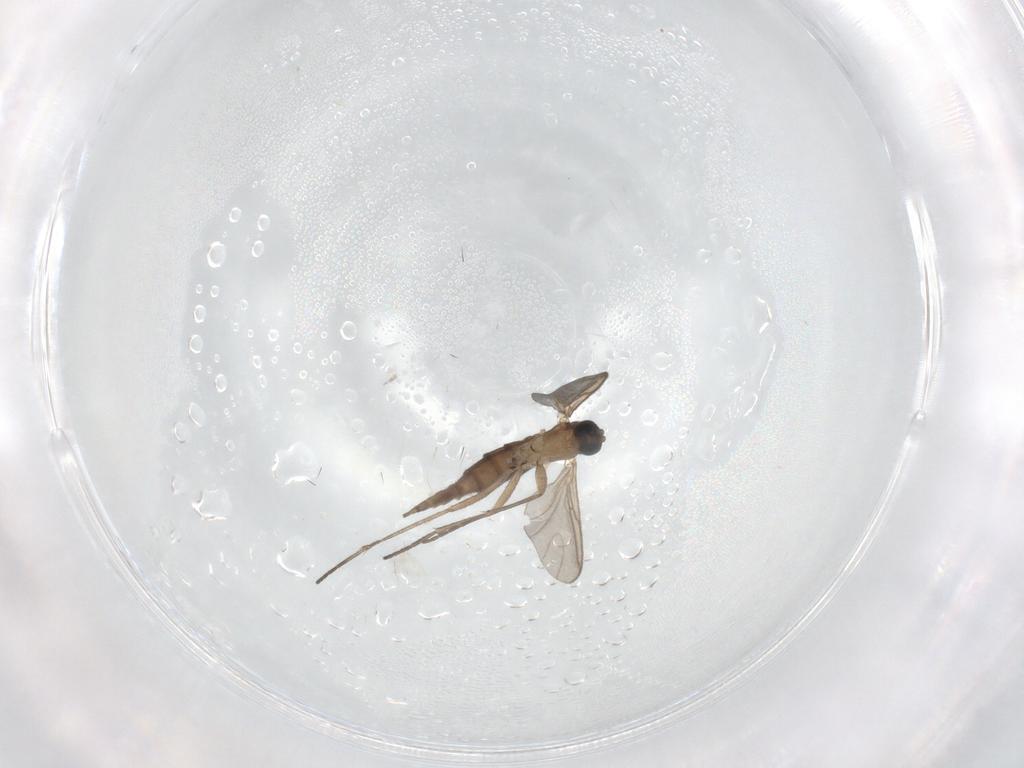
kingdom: Animalia
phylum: Arthropoda
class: Insecta
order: Diptera
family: Sciaridae
